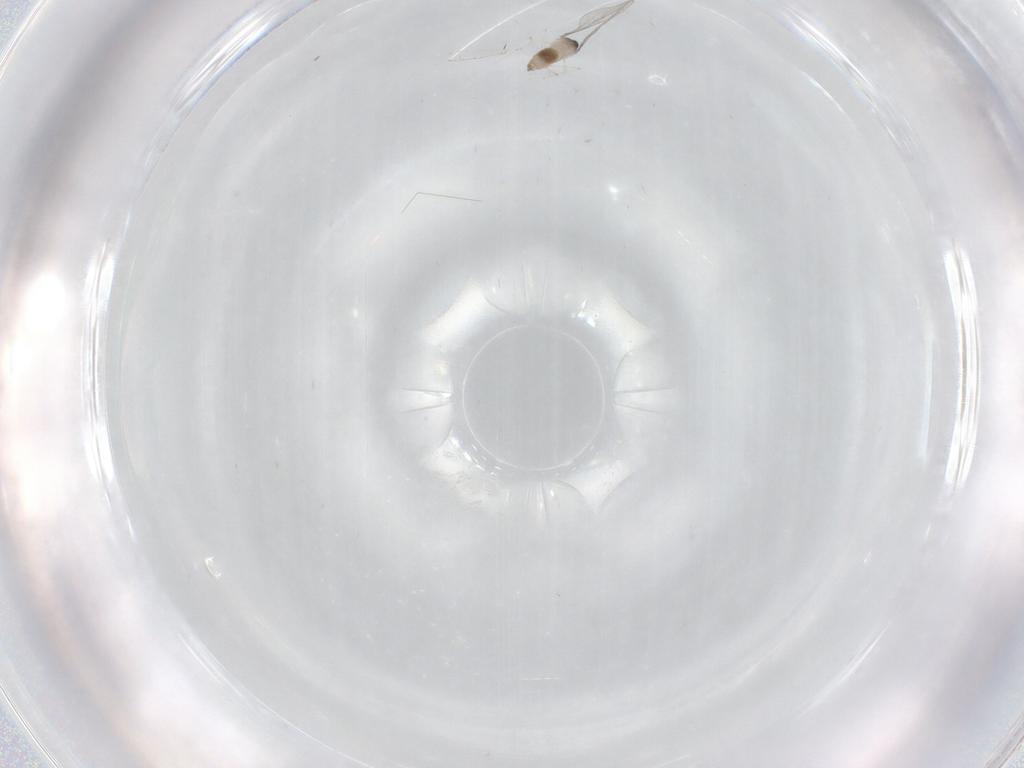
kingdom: Animalia
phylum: Arthropoda
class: Insecta
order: Diptera
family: Cecidomyiidae
